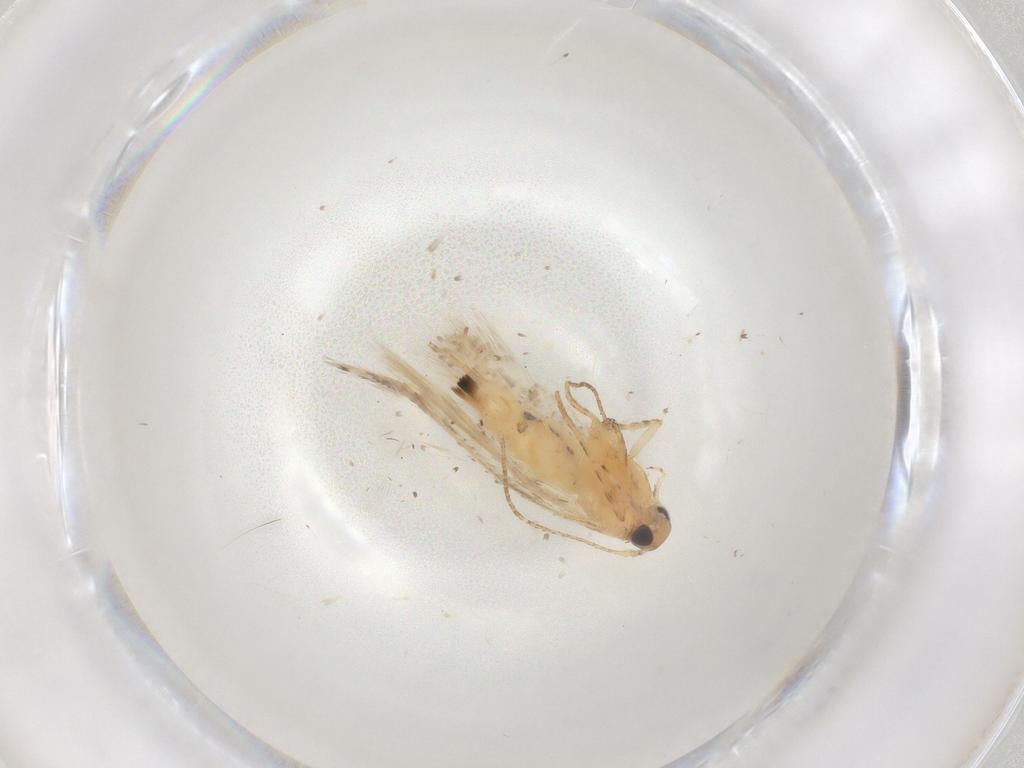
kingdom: Animalia
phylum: Arthropoda
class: Insecta
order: Lepidoptera
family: Gelechiidae
